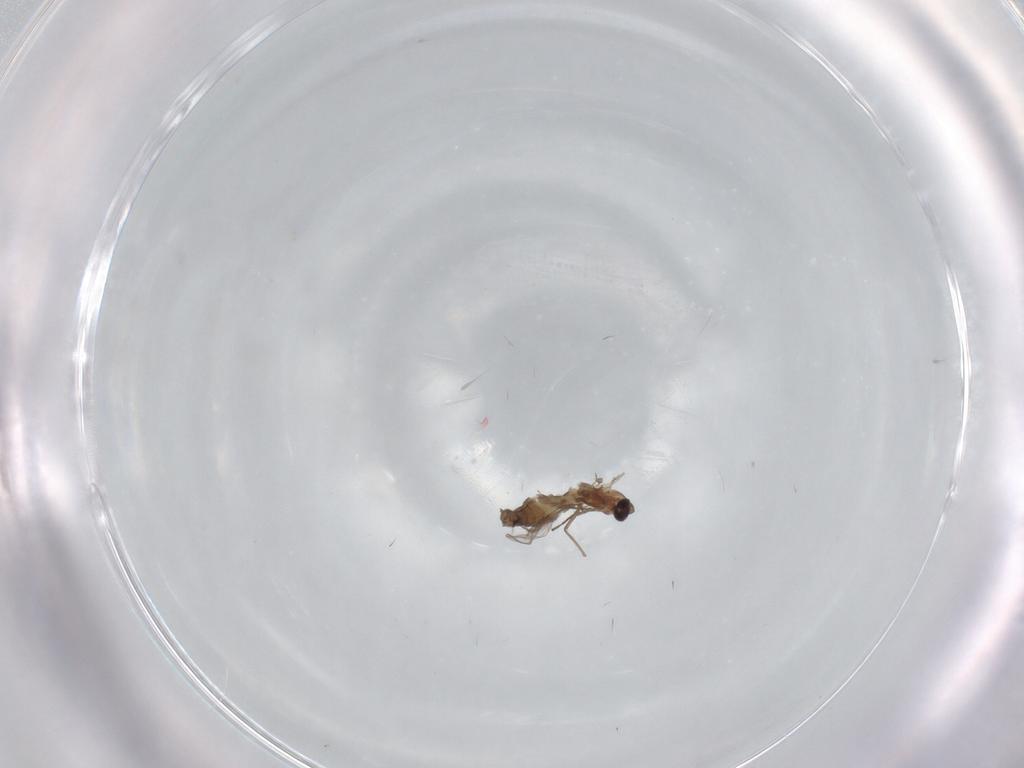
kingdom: Animalia
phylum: Arthropoda
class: Insecta
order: Diptera
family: Chironomidae
